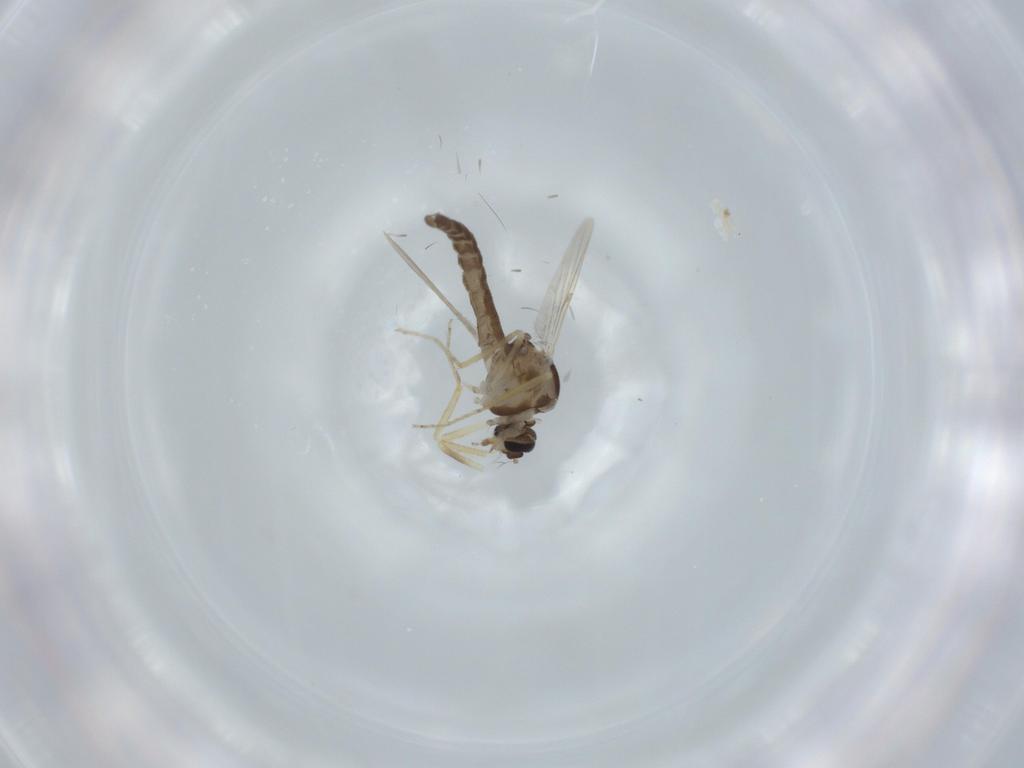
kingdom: Animalia
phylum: Arthropoda
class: Insecta
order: Diptera
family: Ceratopogonidae
